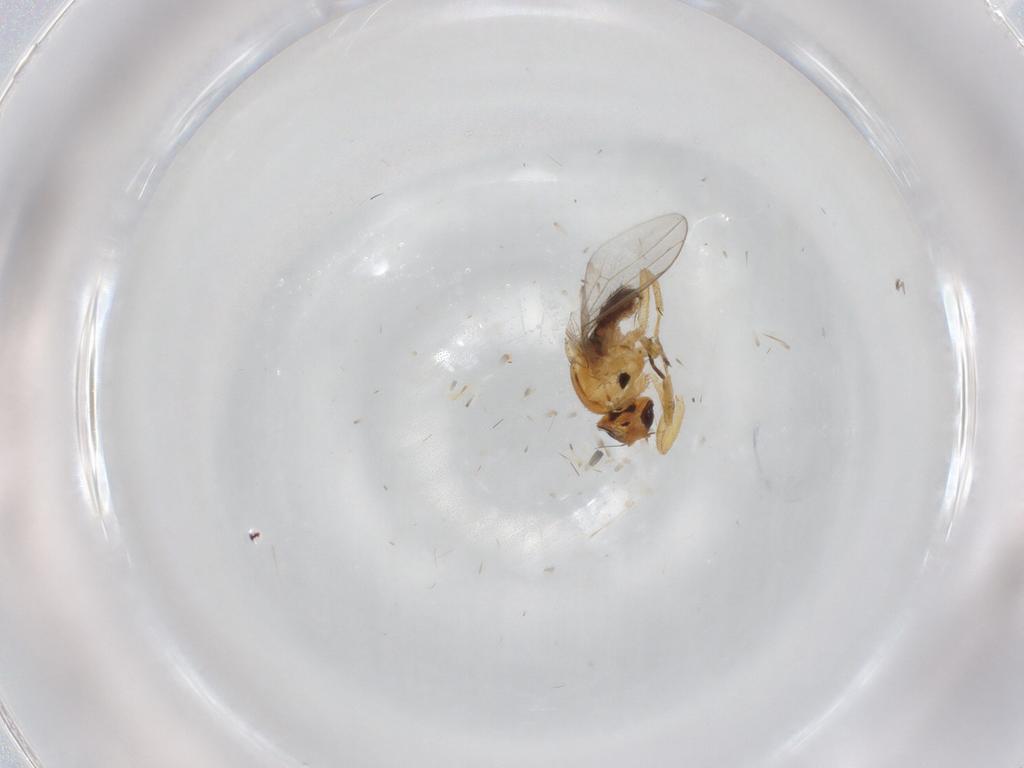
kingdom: Animalia
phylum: Arthropoda
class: Insecta
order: Diptera
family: Chloropidae
